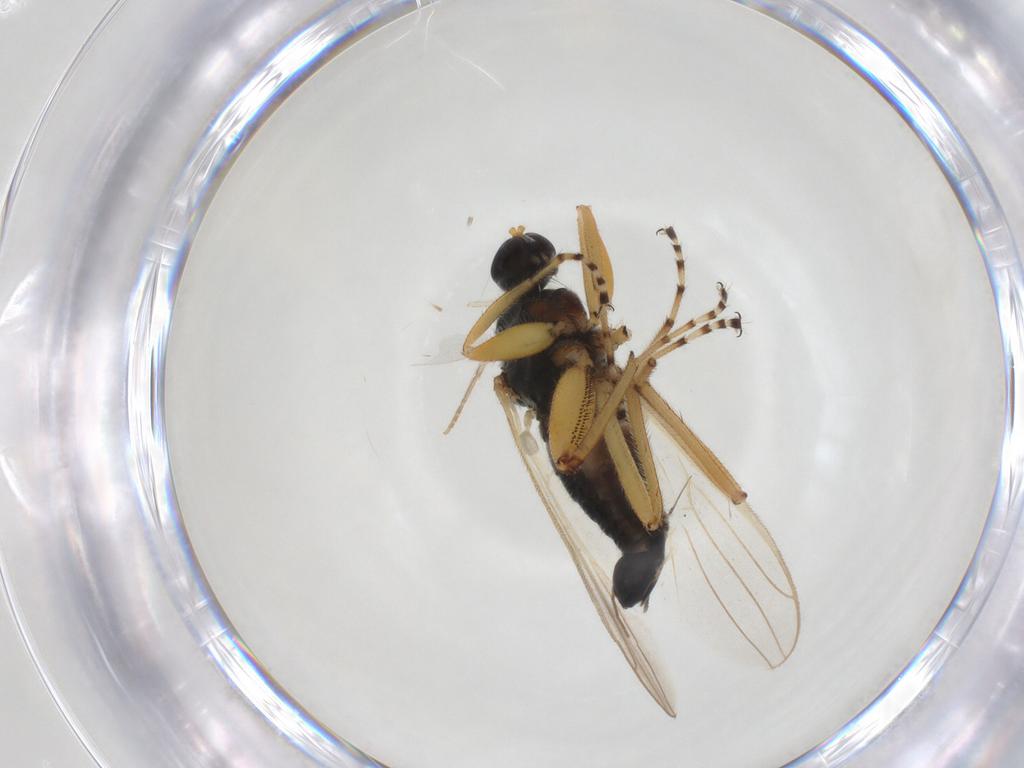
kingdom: Animalia
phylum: Arthropoda
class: Insecta
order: Diptera
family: Hybotidae
